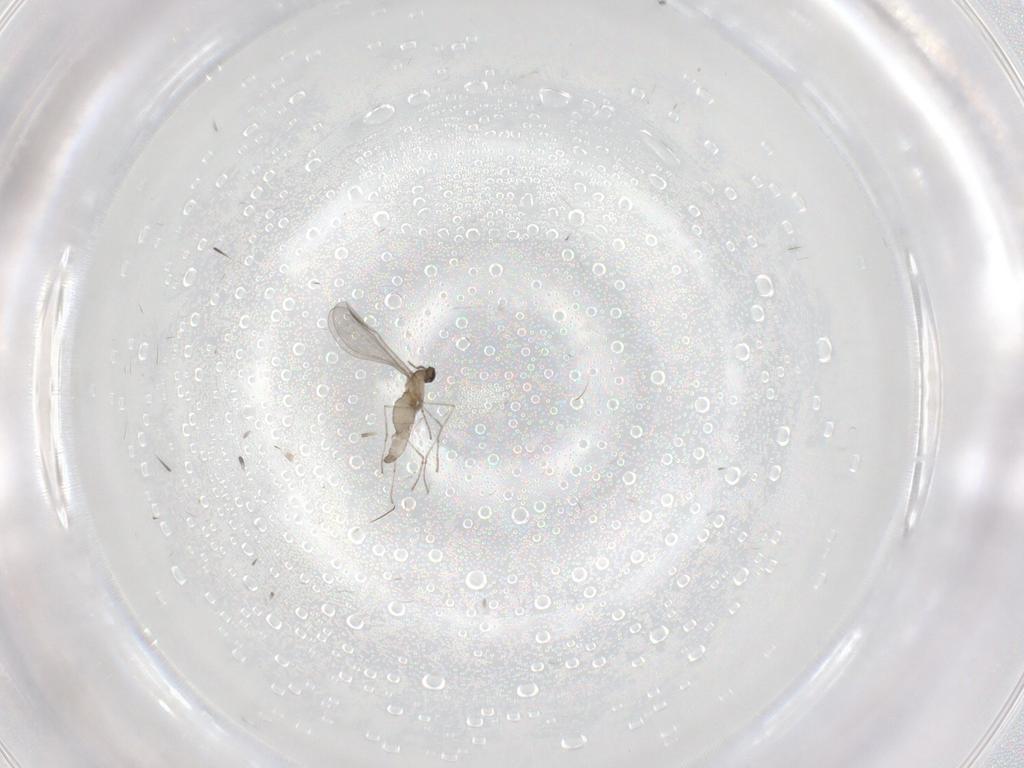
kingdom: Animalia
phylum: Arthropoda
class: Insecta
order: Diptera
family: Cecidomyiidae
